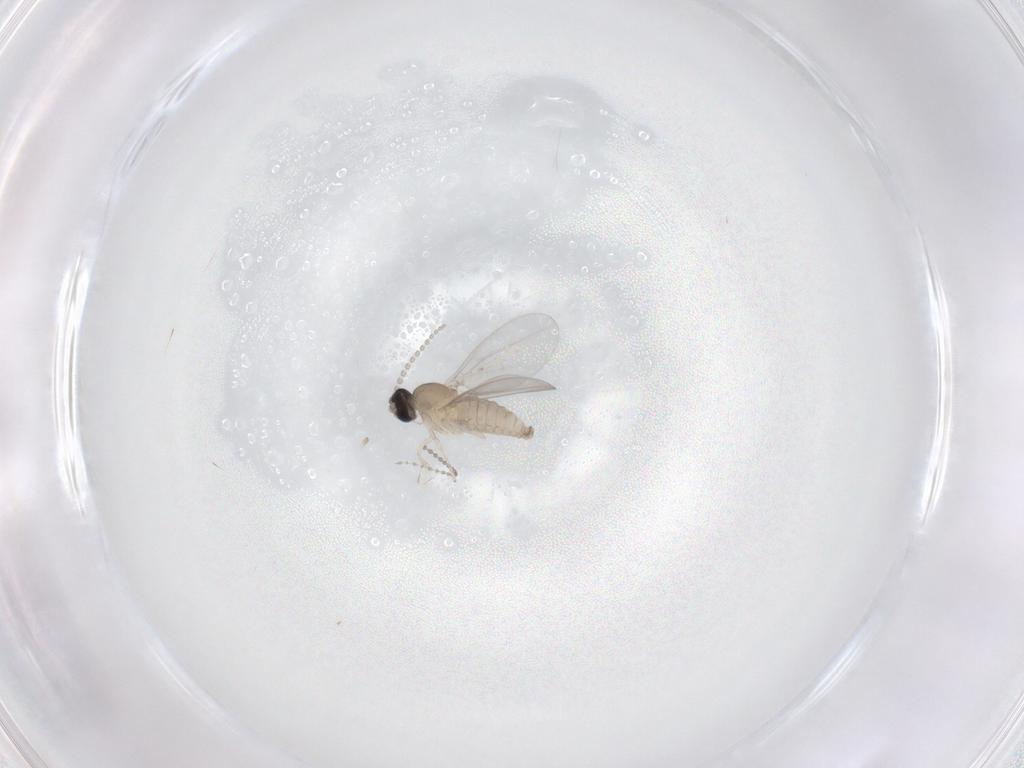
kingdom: Animalia
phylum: Arthropoda
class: Insecta
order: Diptera
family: Cecidomyiidae
